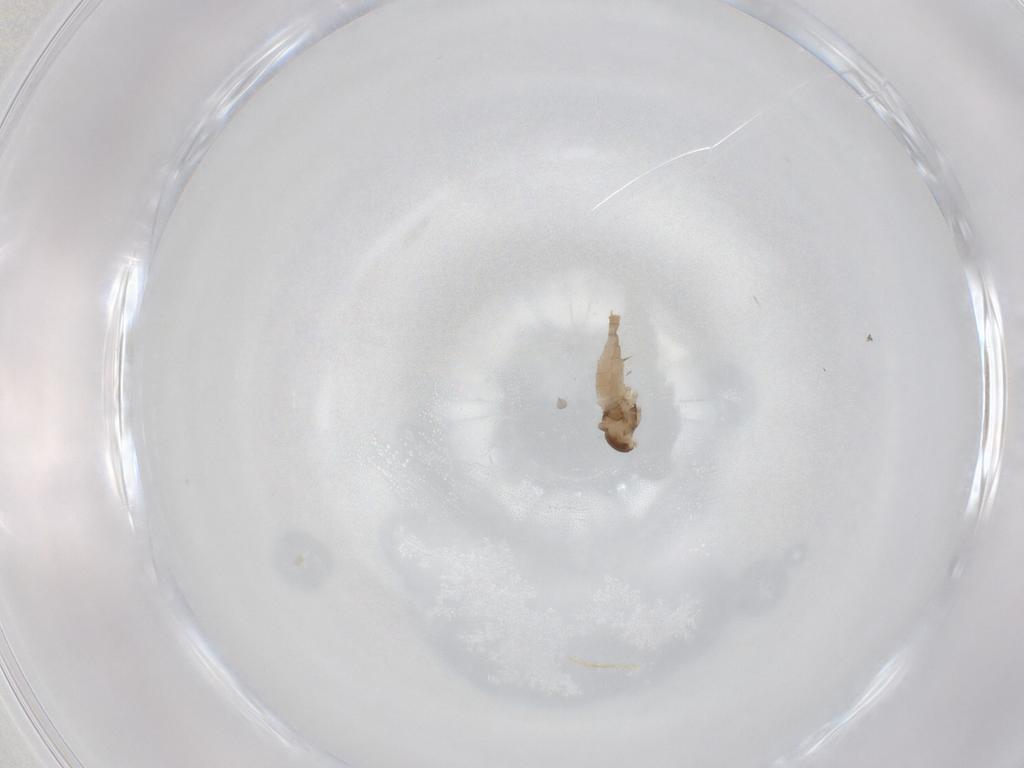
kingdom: Animalia
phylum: Arthropoda
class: Insecta
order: Diptera
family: Cecidomyiidae
